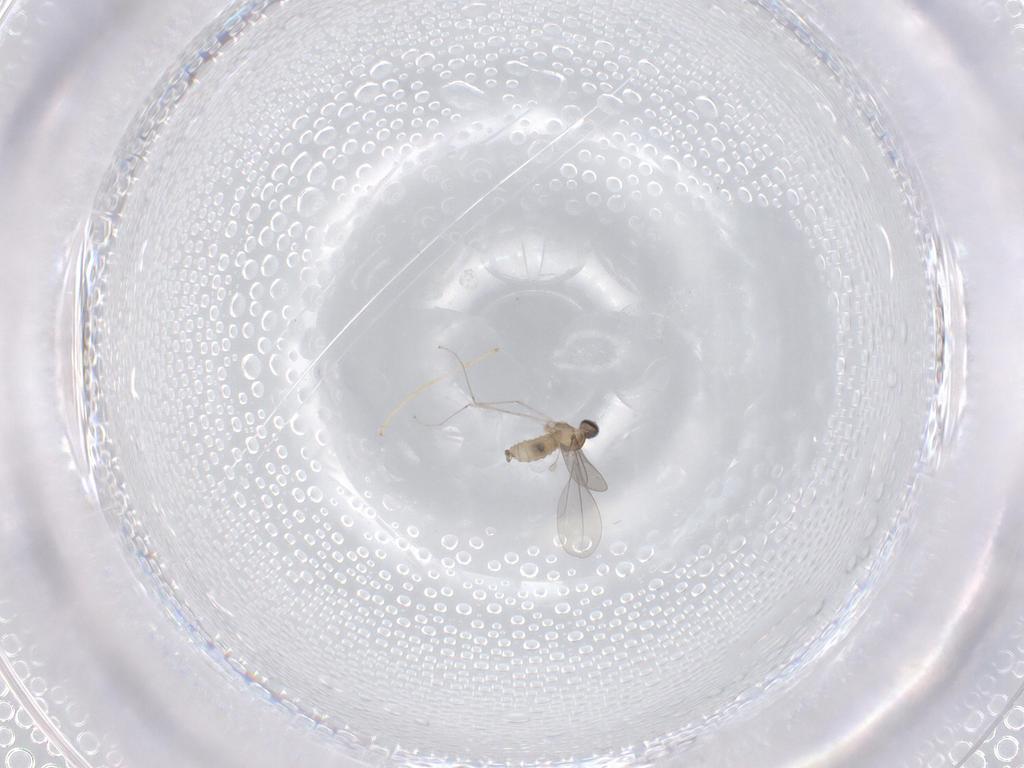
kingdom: Animalia
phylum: Arthropoda
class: Insecta
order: Diptera
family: Cecidomyiidae
